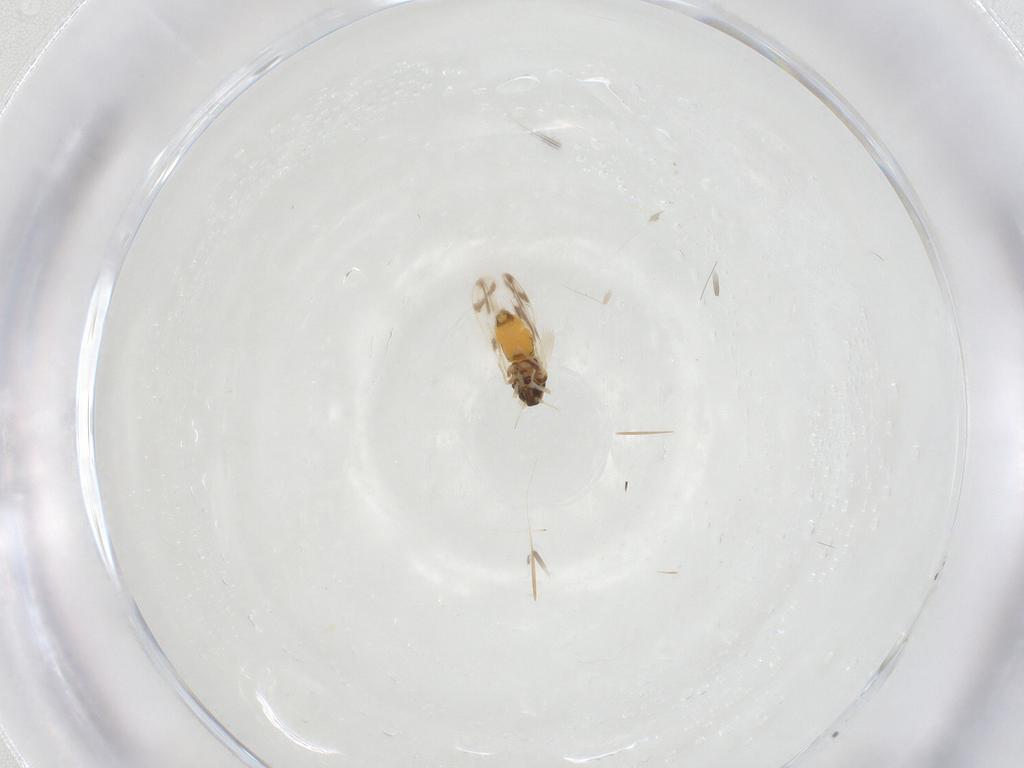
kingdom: Animalia
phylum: Arthropoda
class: Insecta
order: Hemiptera
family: Aleyrodidae
